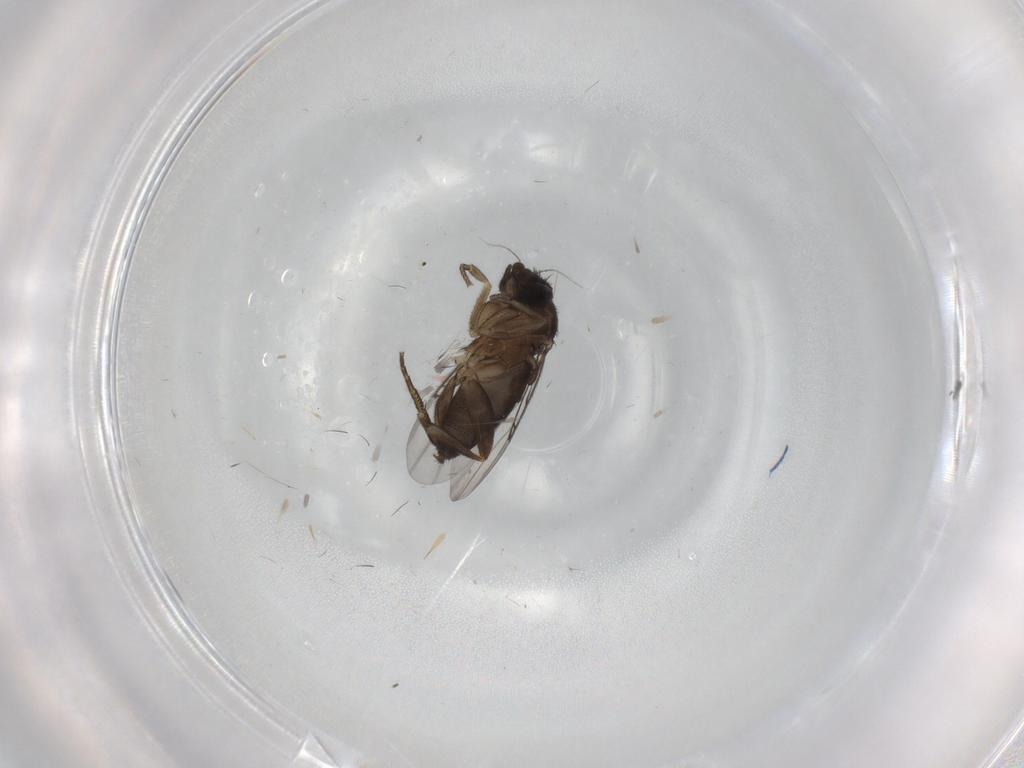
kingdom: Animalia
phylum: Arthropoda
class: Insecta
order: Diptera
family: Phoridae
